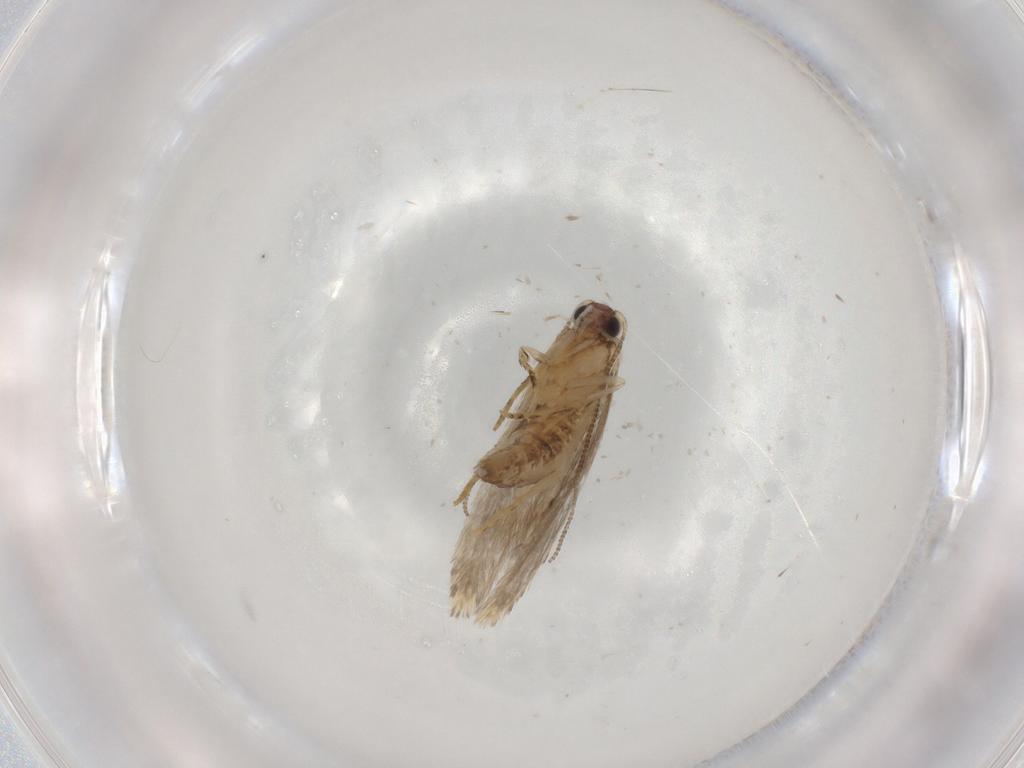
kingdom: Animalia
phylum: Arthropoda
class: Insecta
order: Lepidoptera
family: Tineidae
